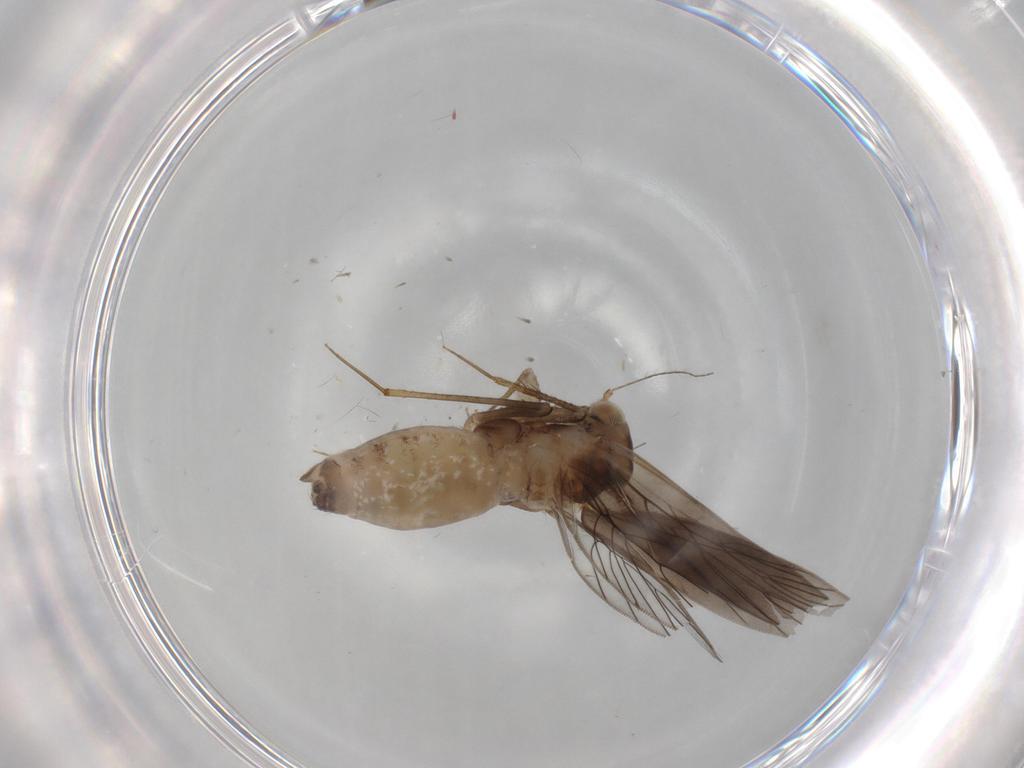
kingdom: Animalia
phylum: Arthropoda
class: Insecta
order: Psocodea
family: Lepidopsocidae
